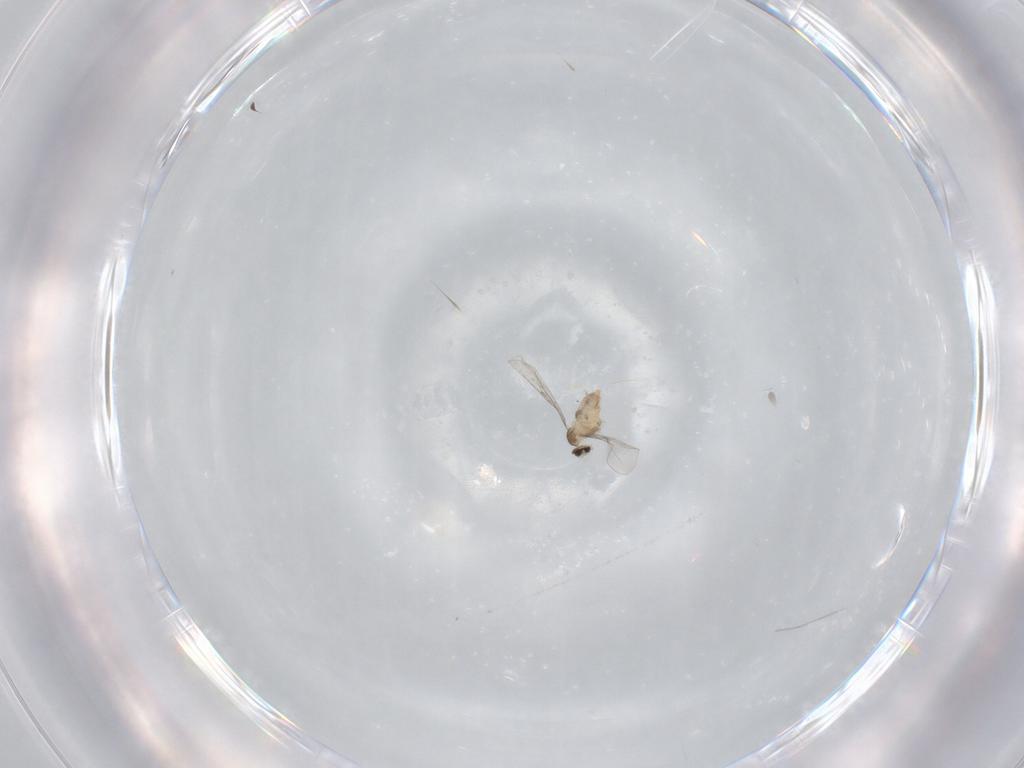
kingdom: Animalia
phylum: Arthropoda
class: Insecta
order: Diptera
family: Cecidomyiidae
